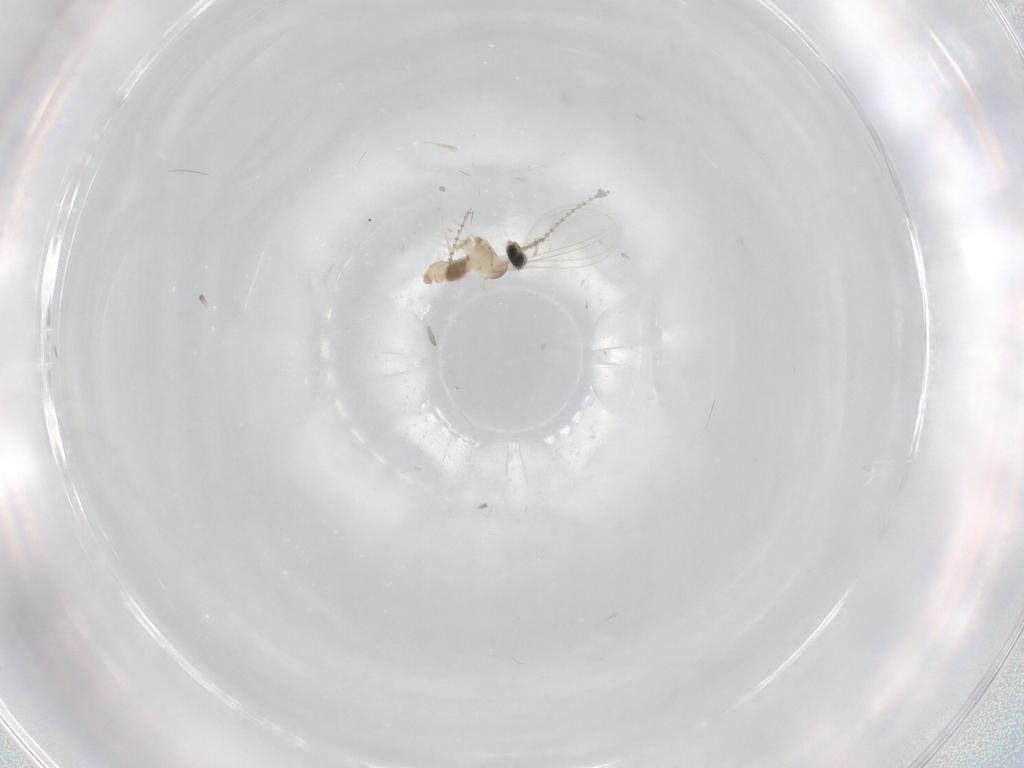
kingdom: Animalia
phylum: Arthropoda
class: Insecta
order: Diptera
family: Cecidomyiidae
